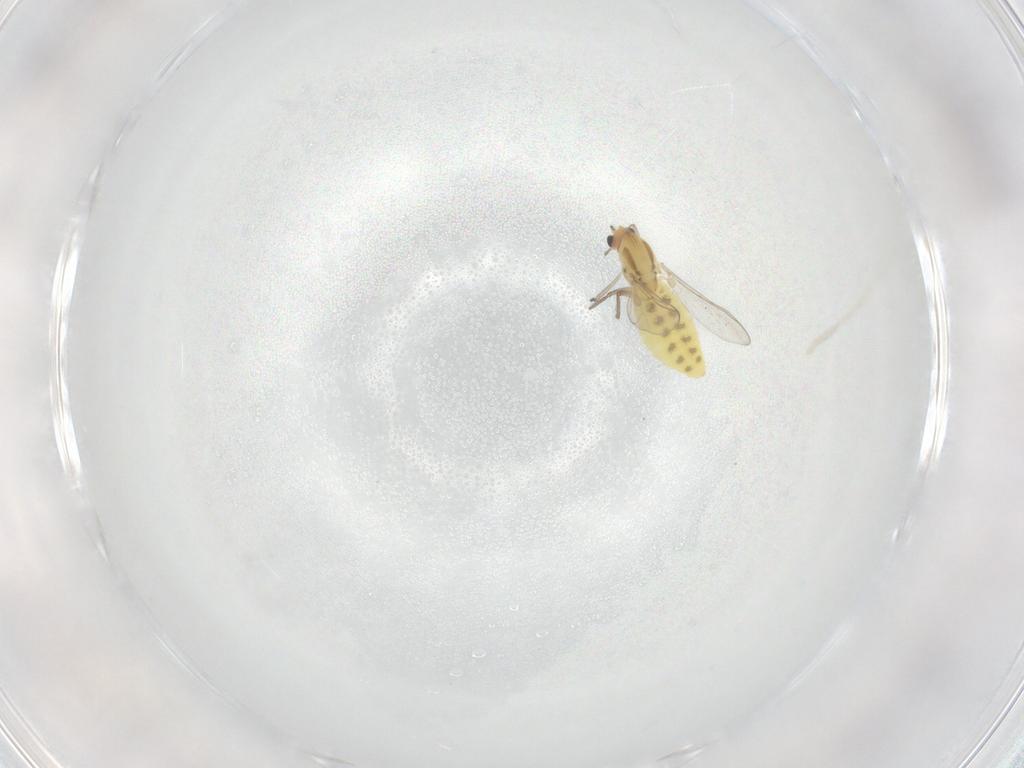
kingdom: Animalia
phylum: Arthropoda
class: Insecta
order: Diptera
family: Chironomidae
